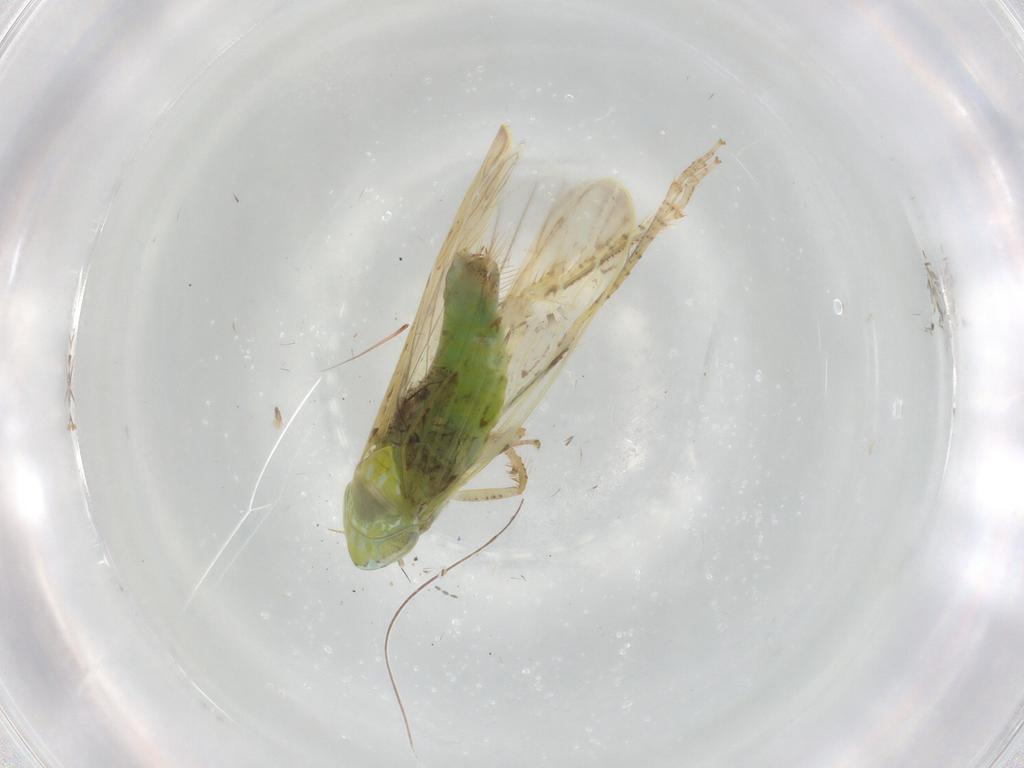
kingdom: Animalia
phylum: Arthropoda
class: Insecta
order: Hemiptera
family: Cicadellidae
